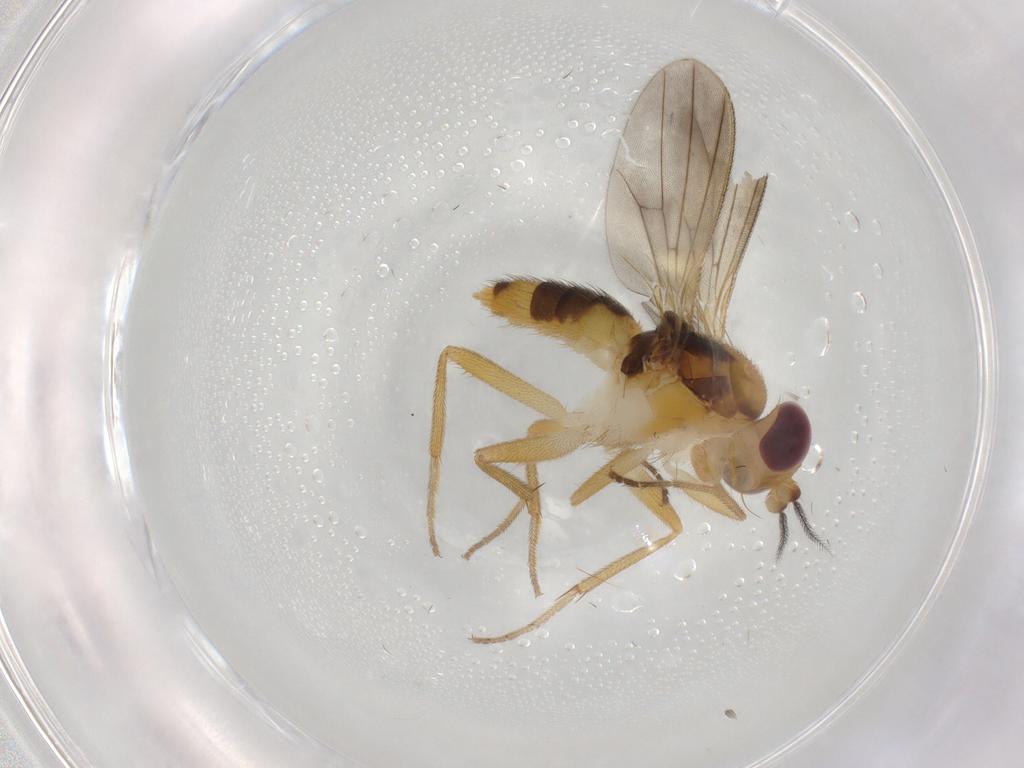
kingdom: Animalia
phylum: Arthropoda
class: Insecta
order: Diptera
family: Clusiidae
